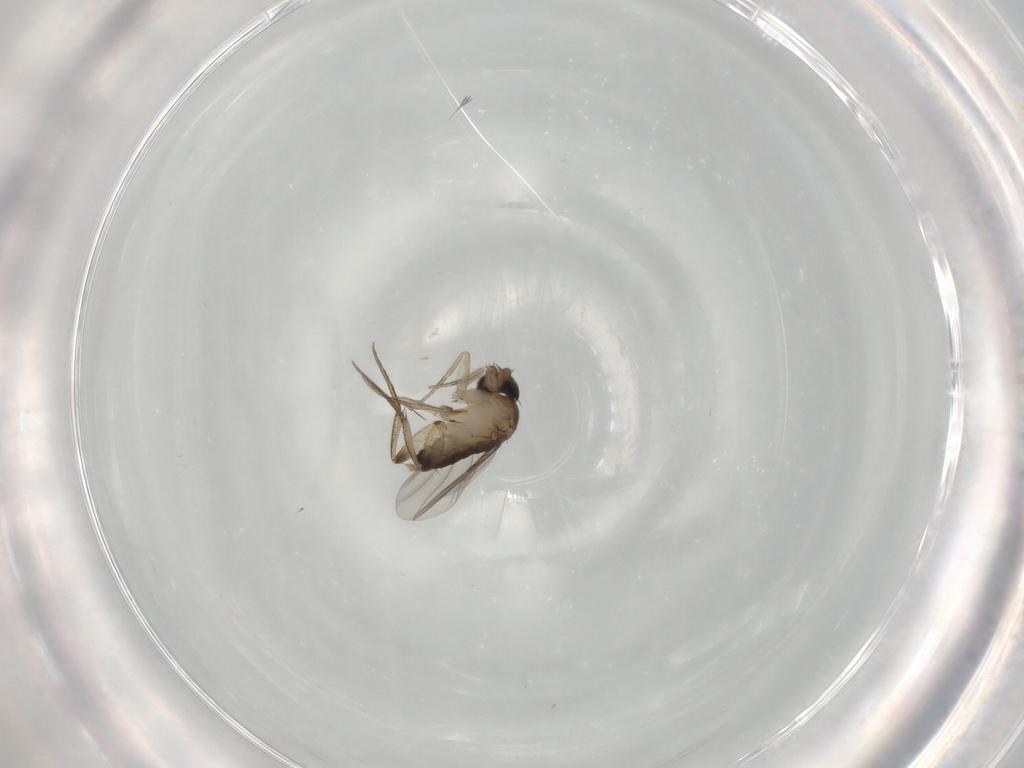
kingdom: Animalia
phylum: Arthropoda
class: Insecta
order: Diptera
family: Phoridae
